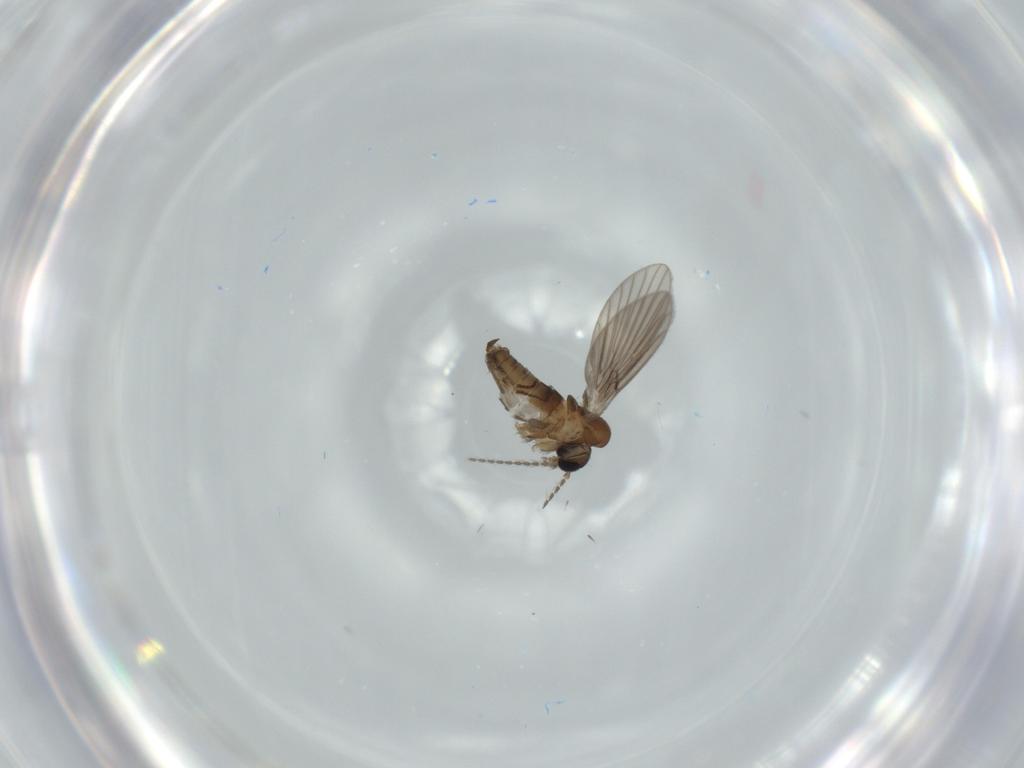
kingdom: Animalia
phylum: Arthropoda
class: Insecta
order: Diptera
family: Psychodidae
